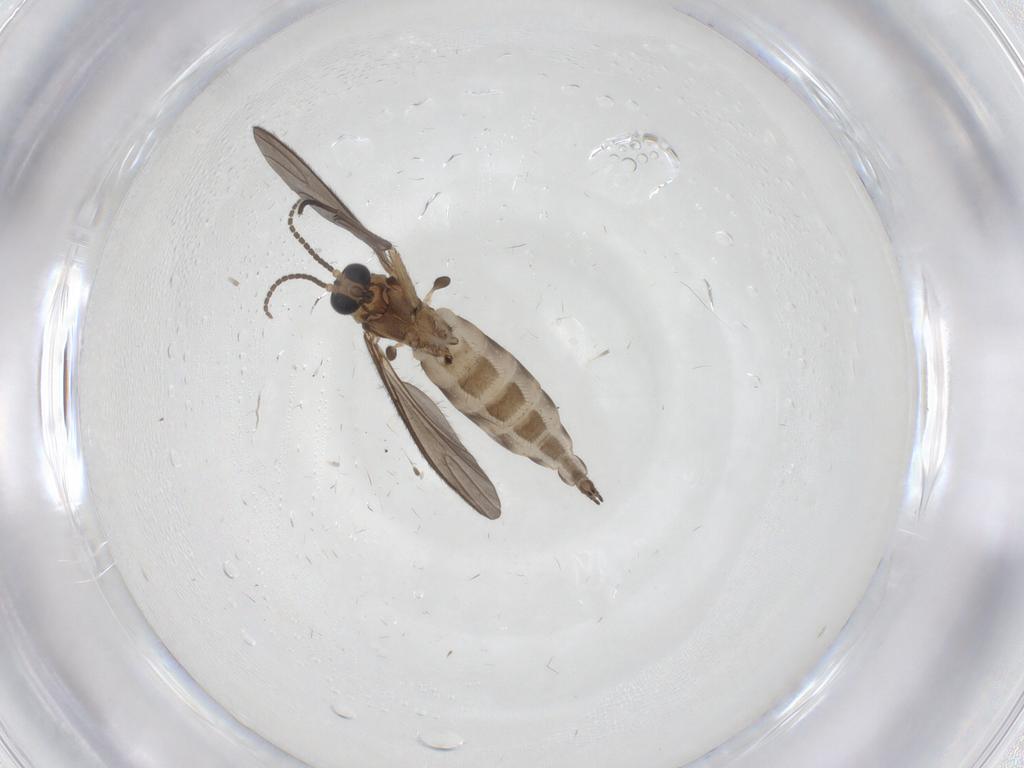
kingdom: Animalia
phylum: Arthropoda
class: Insecta
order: Diptera
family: Sciaridae
